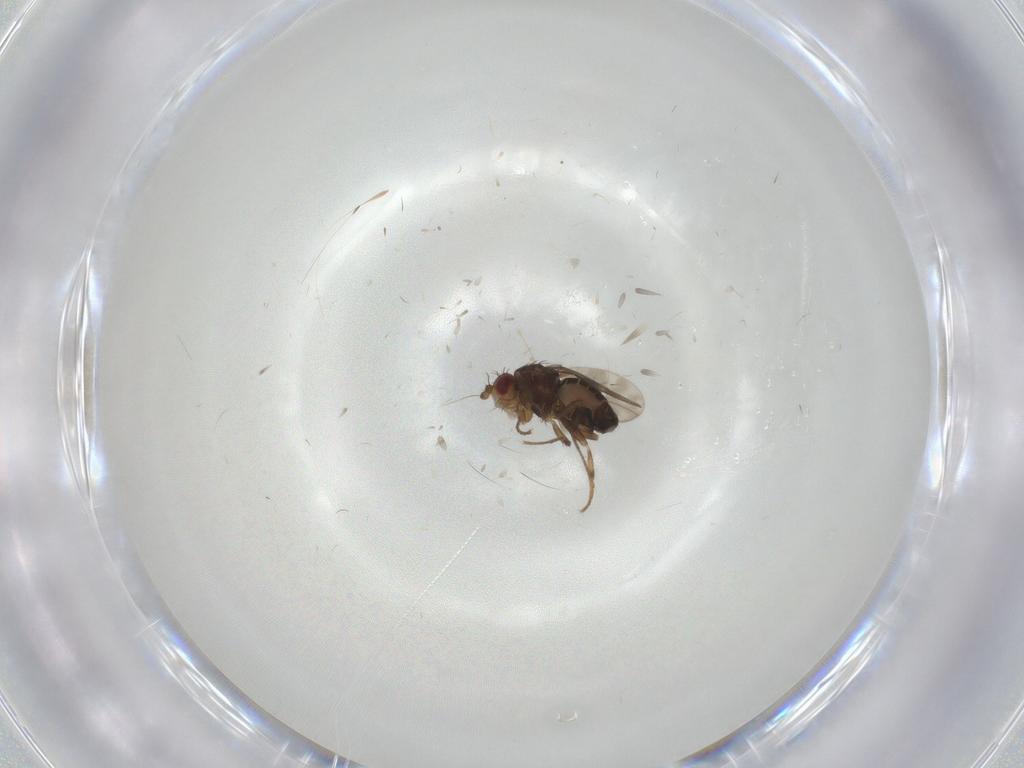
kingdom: Animalia
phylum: Arthropoda
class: Insecta
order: Diptera
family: Sphaeroceridae
